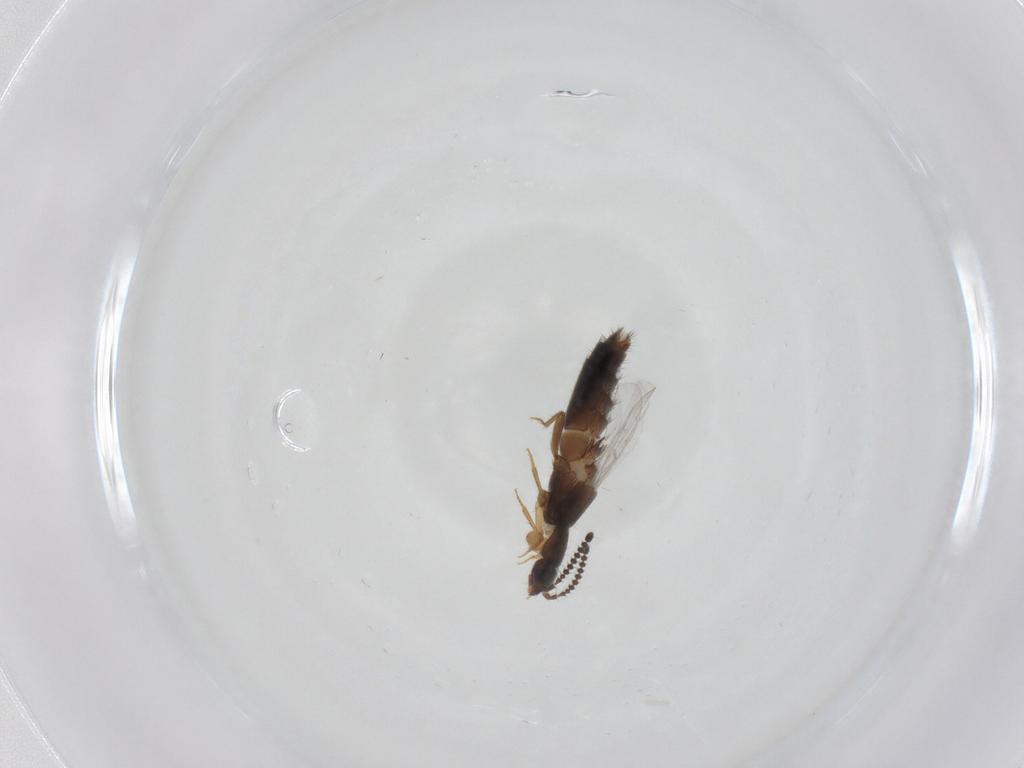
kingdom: Animalia
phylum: Arthropoda
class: Insecta
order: Coleoptera
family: Staphylinidae
